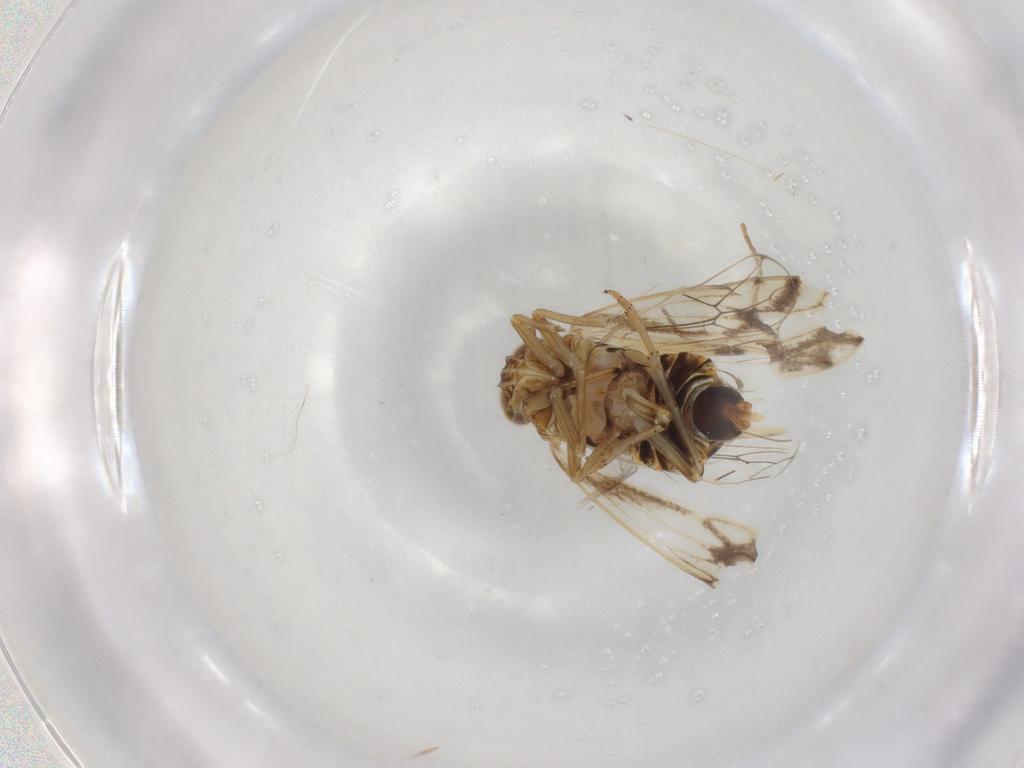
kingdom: Animalia
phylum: Arthropoda
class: Insecta
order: Hemiptera
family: Delphacidae
